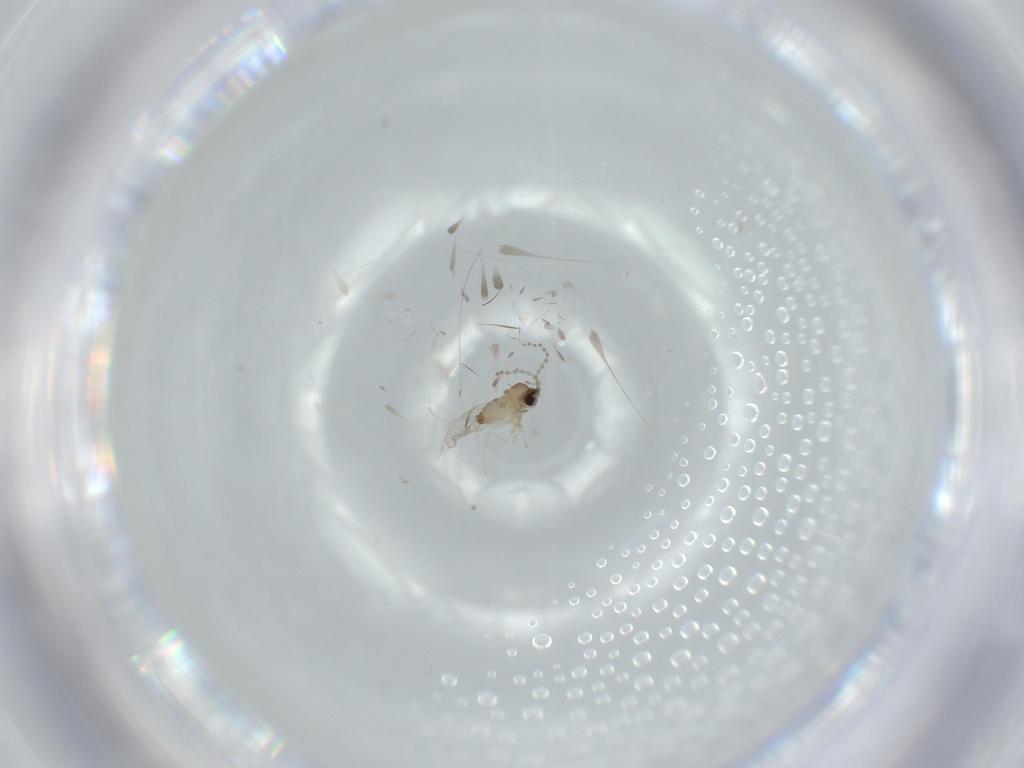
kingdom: Animalia
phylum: Arthropoda
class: Insecta
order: Diptera
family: Cecidomyiidae
